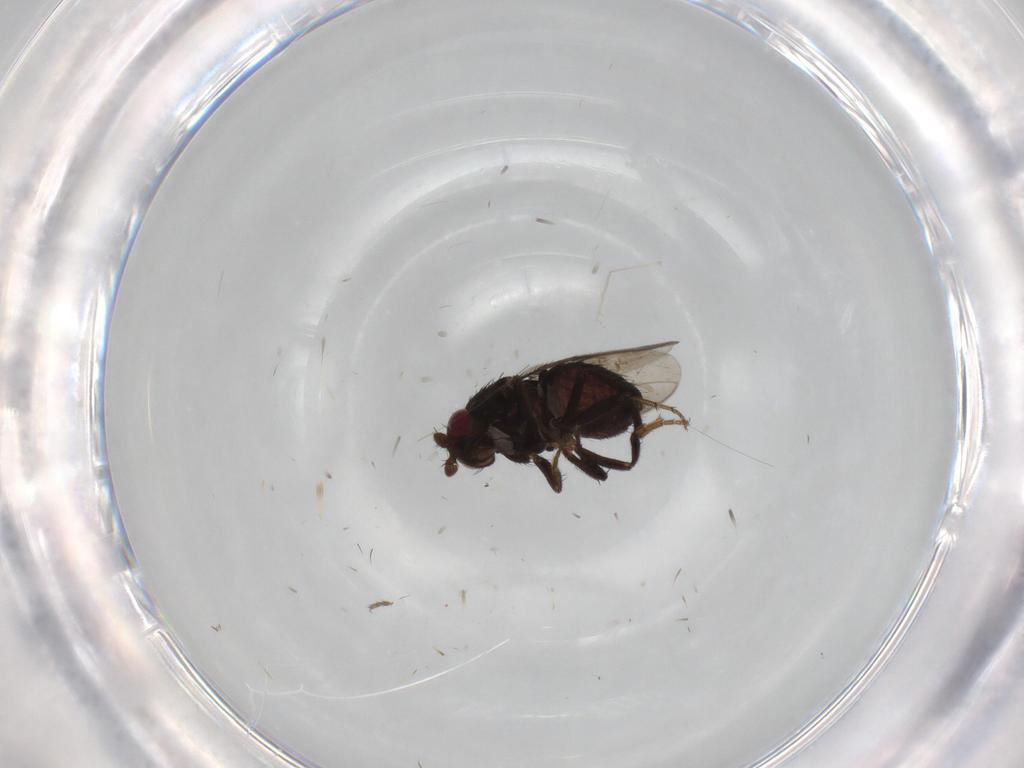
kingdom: Animalia
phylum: Arthropoda
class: Insecta
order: Diptera
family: Sphaeroceridae
